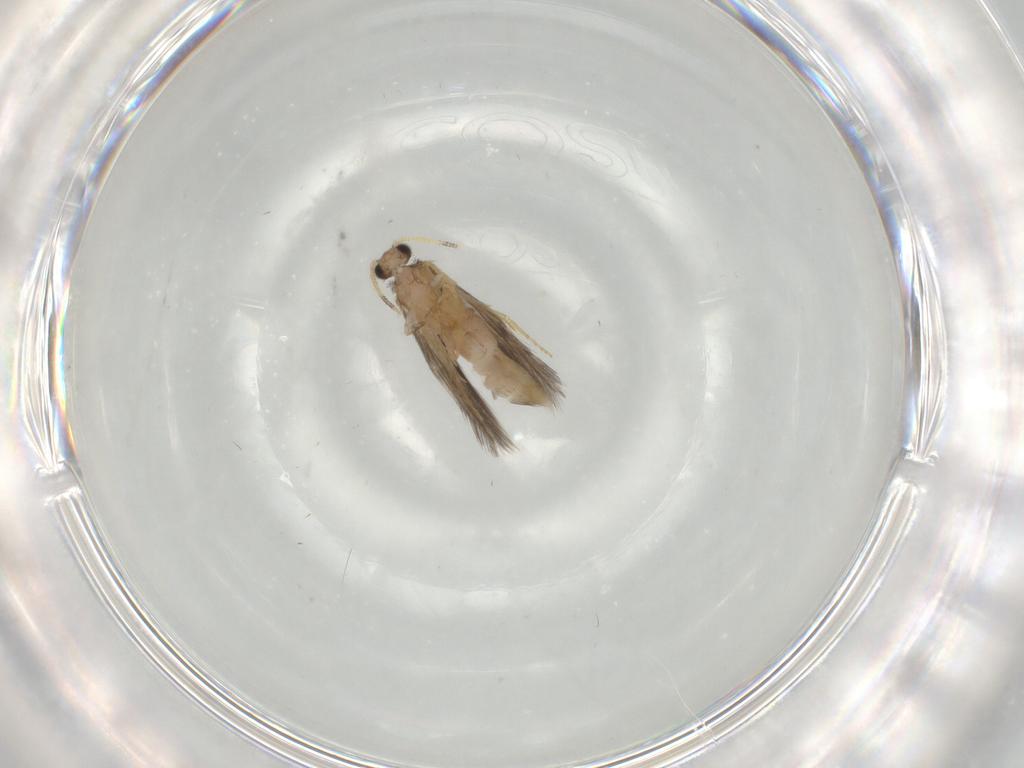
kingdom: Animalia
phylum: Arthropoda
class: Insecta
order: Trichoptera
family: Hydroptilidae
